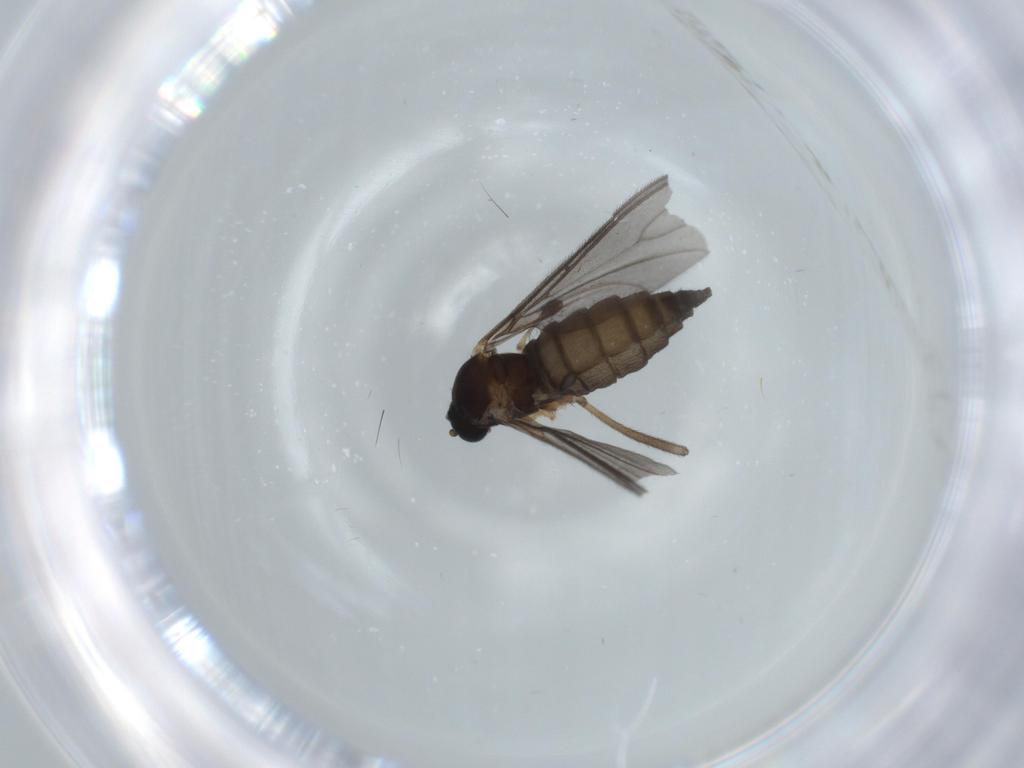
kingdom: Animalia
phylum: Arthropoda
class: Insecta
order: Diptera
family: Sciaridae
